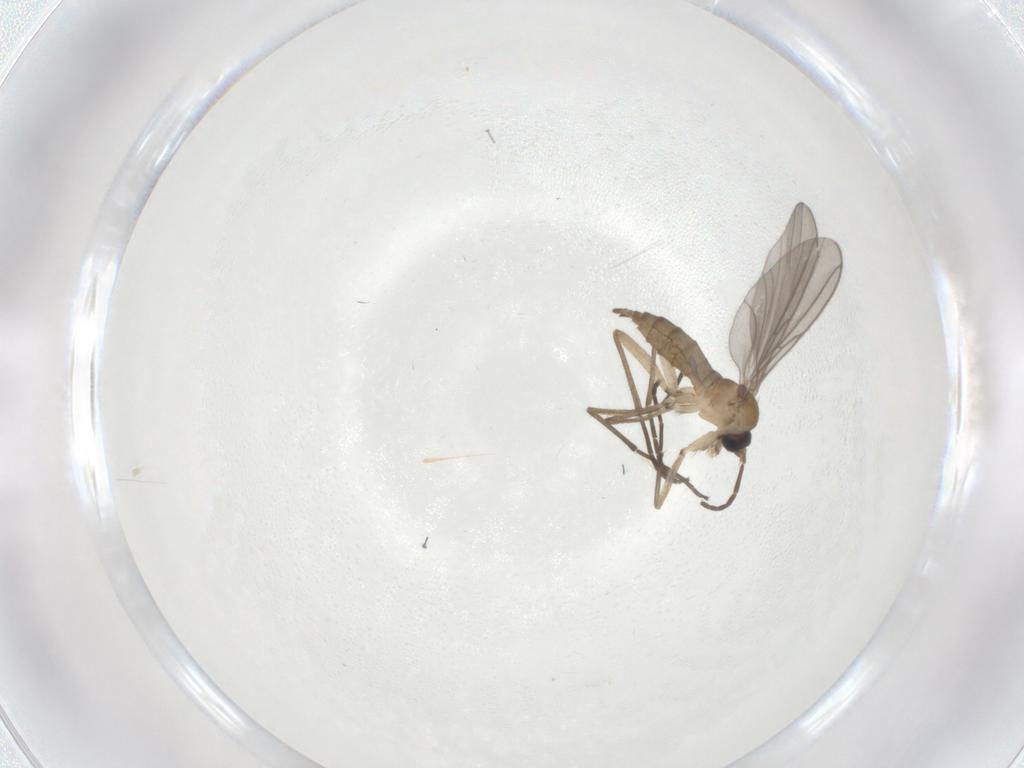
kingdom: Animalia
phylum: Arthropoda
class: Insecta
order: Diptera
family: Sciaridae
